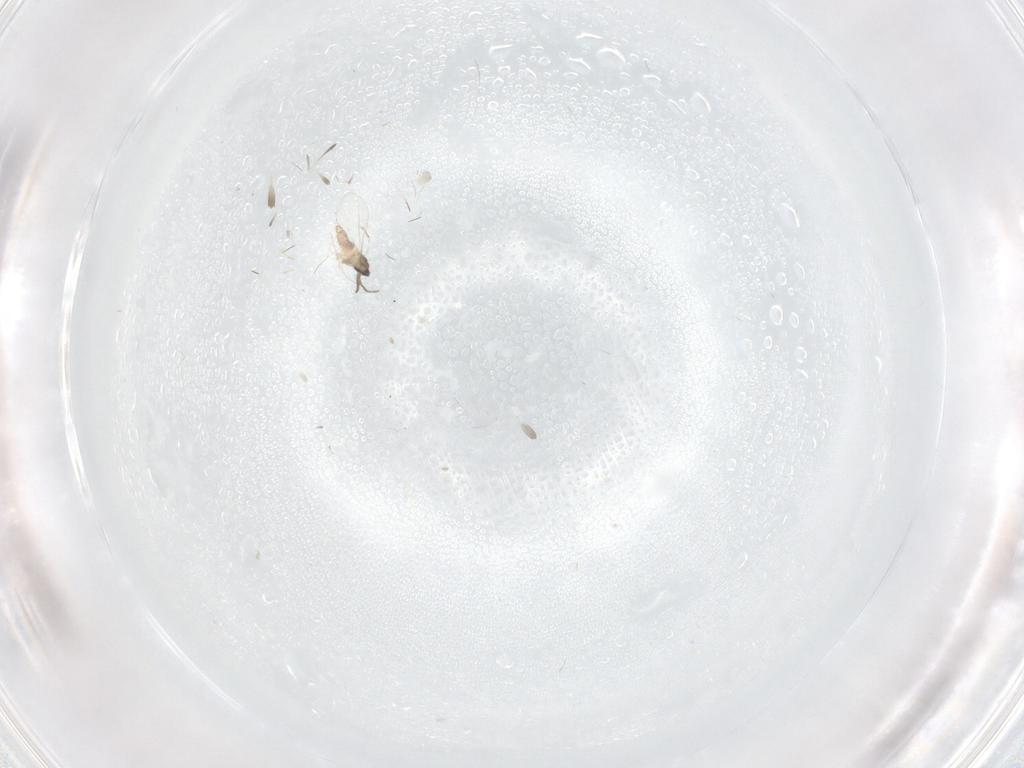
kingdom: Animalia
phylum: Arthropoda
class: Insecta
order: Diptera
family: Cecidomyiidae
